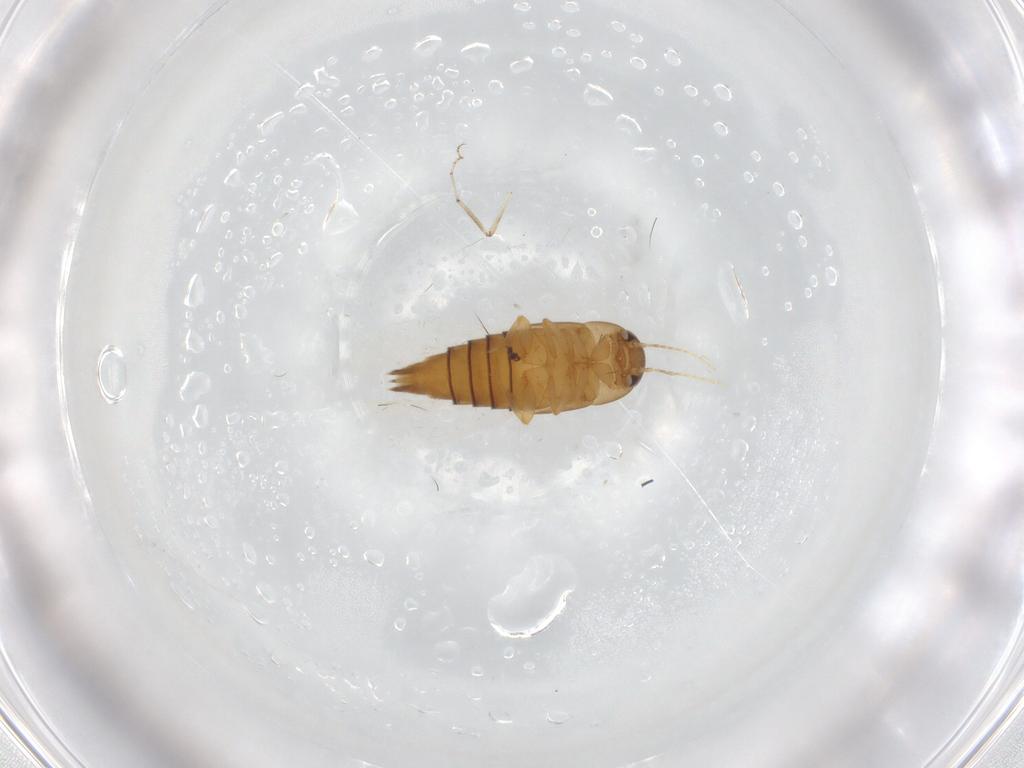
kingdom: Animalia
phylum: Arthropoda
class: Insecta
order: Coleoptera
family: Staphylinidae
